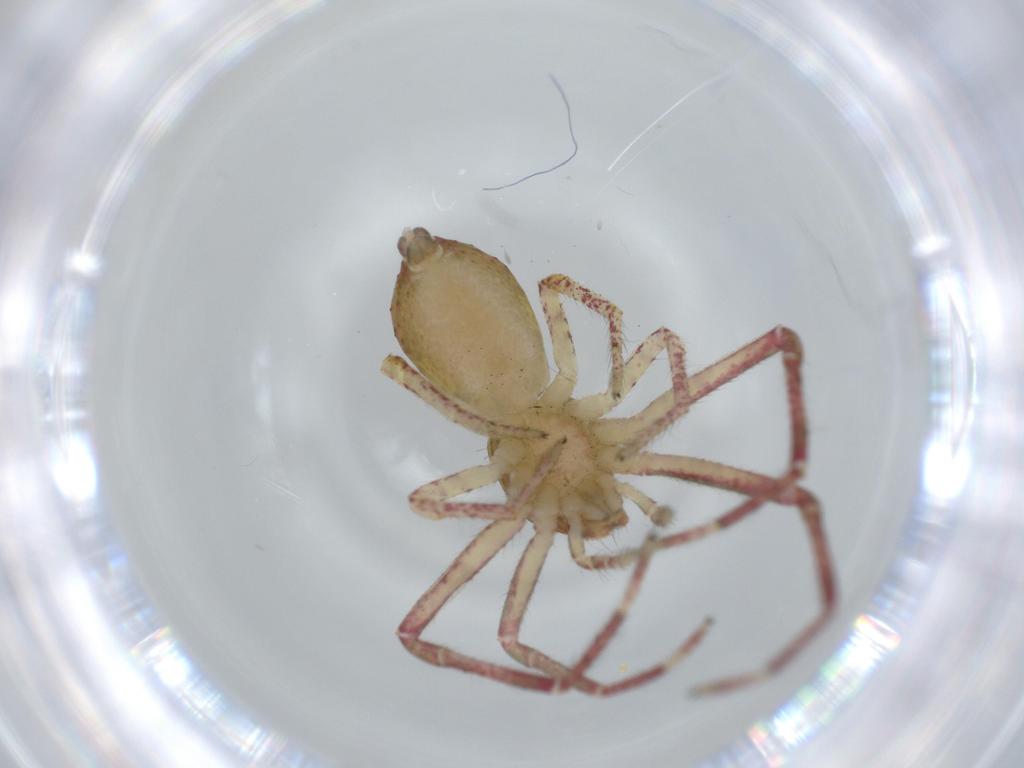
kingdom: Animalia
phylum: Arthropoda
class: Arachnida
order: Araneae
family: Thomisidae
